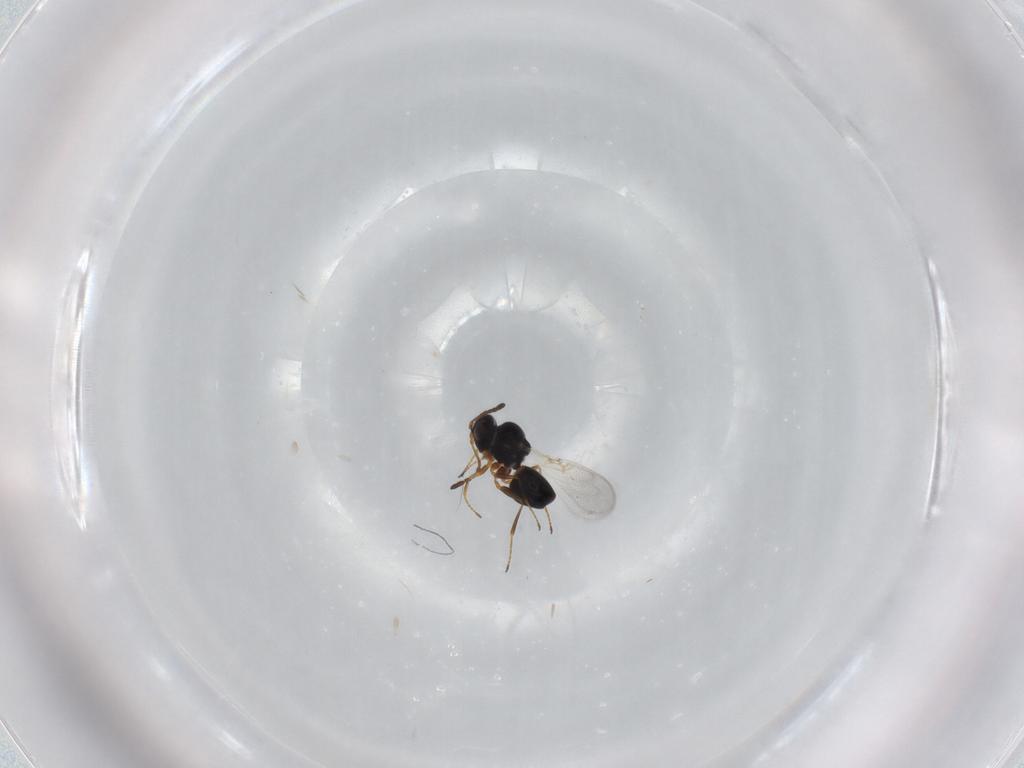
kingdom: Animalia
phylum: Arthropoda
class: Insecta
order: Hymenoptera
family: Figitidae
